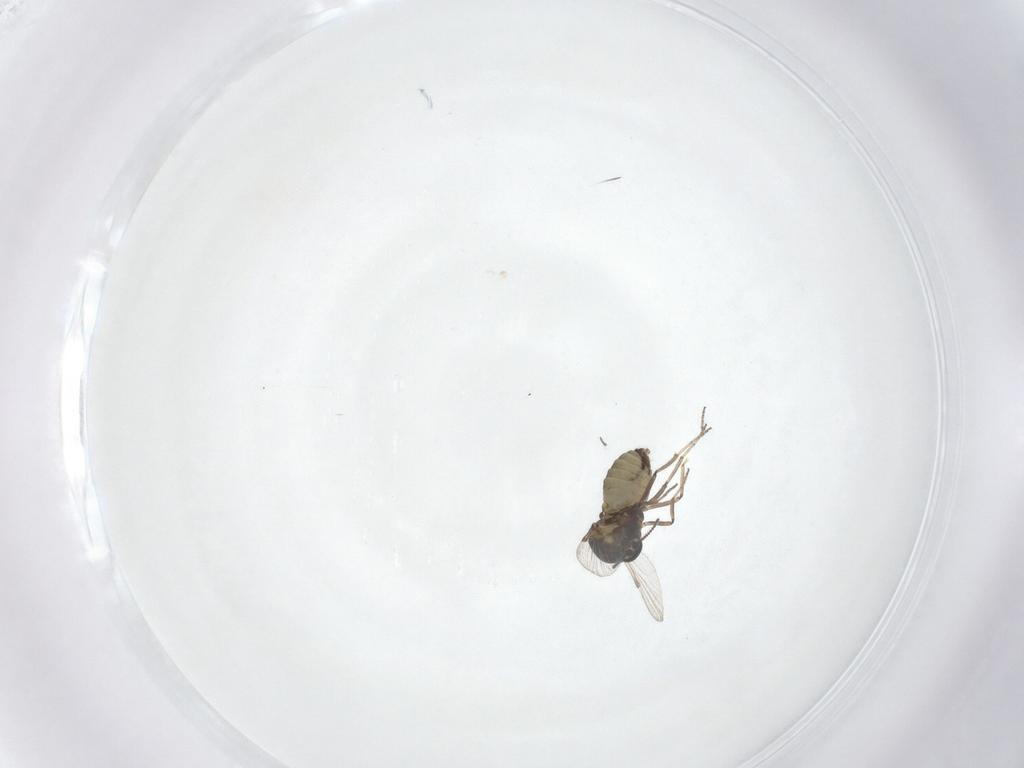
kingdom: Animalia
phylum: Arthropoda
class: Insecta
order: Diptera
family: Ceratopogonidae
